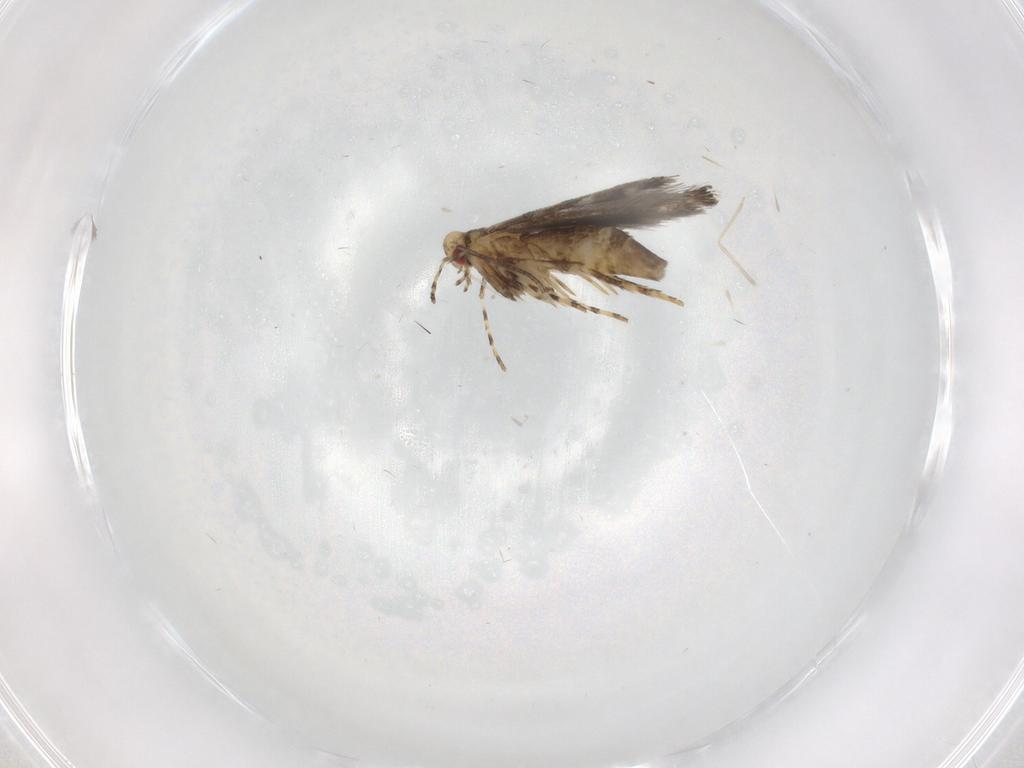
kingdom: Animalia
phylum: Arthropoda
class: Insecta
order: Lepidoptera
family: Gracillariidae
